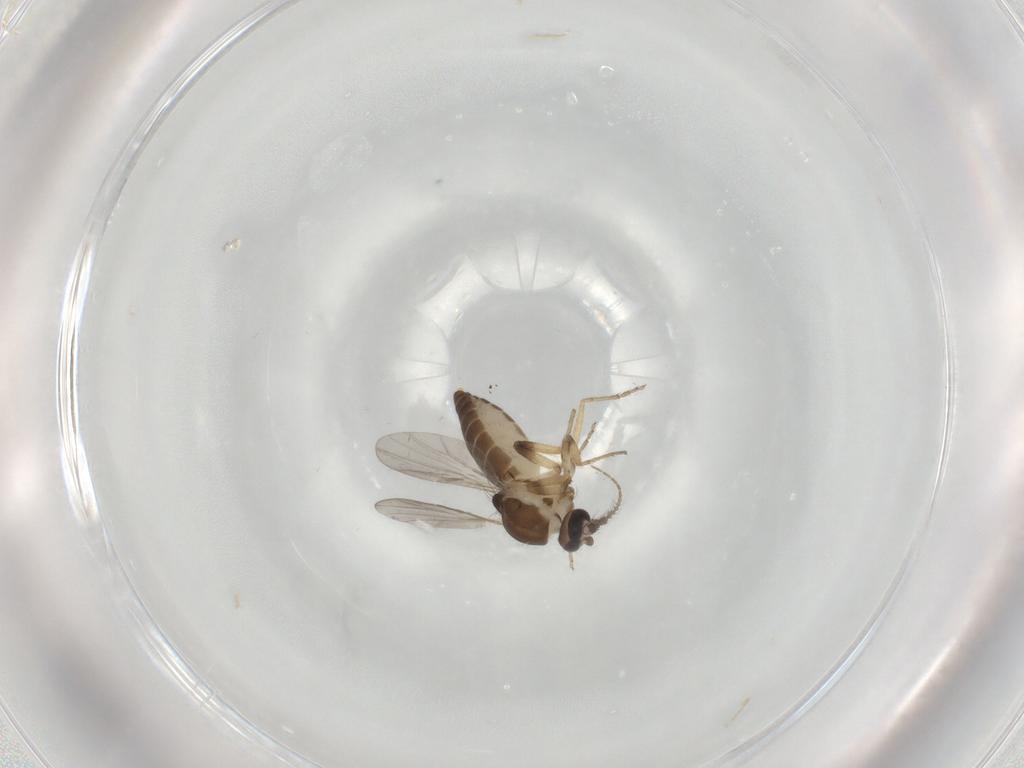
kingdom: Animalia
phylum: Arthropoda
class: Insecta
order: Diptera
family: Ceratopogonidae
